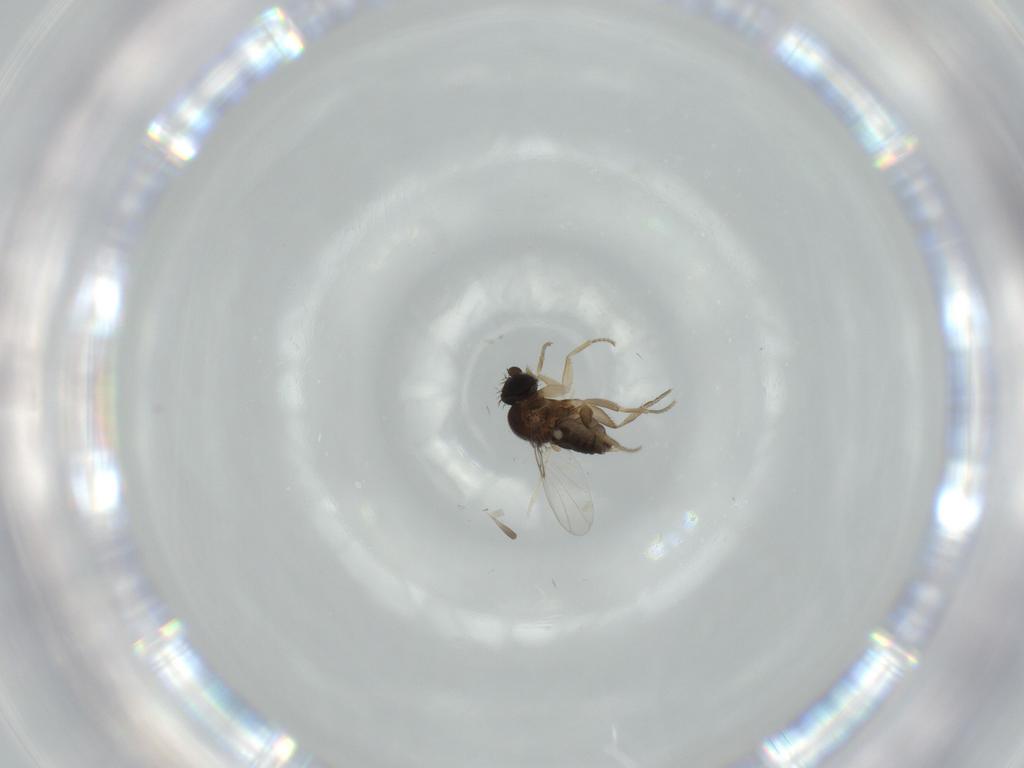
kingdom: Animalia
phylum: Arthropoda
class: Insecta
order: Diptera
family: Phoridae
